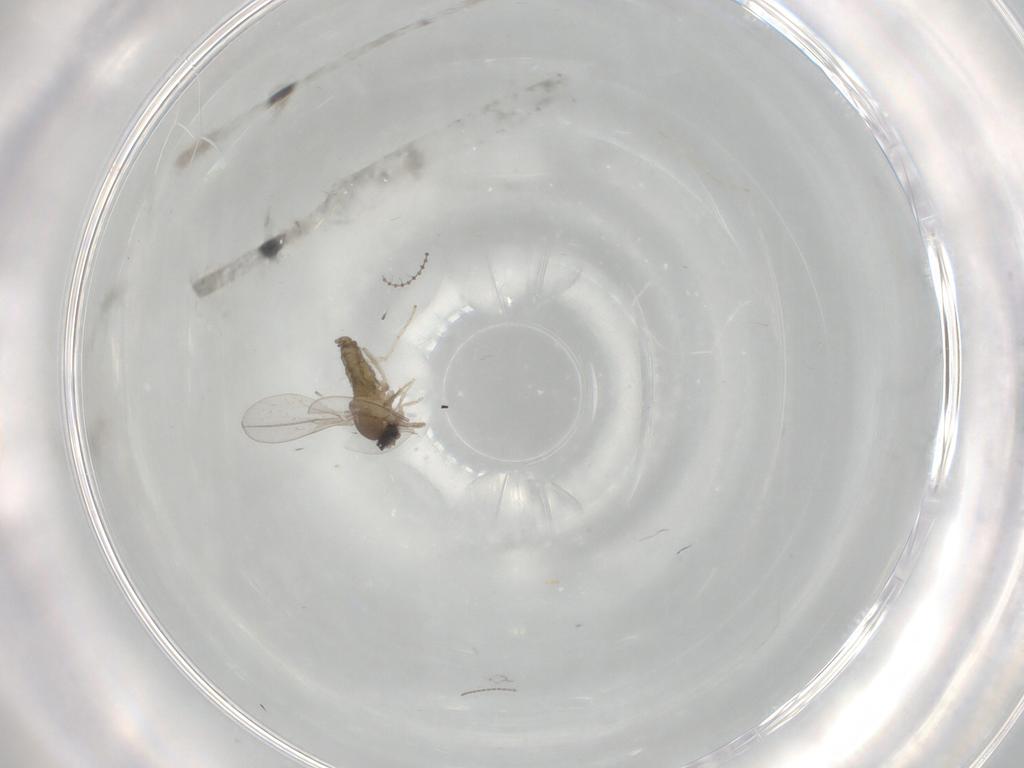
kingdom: Animalia
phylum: Arthropoda
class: Insecta
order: Diptera
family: Cecidomyiidae
